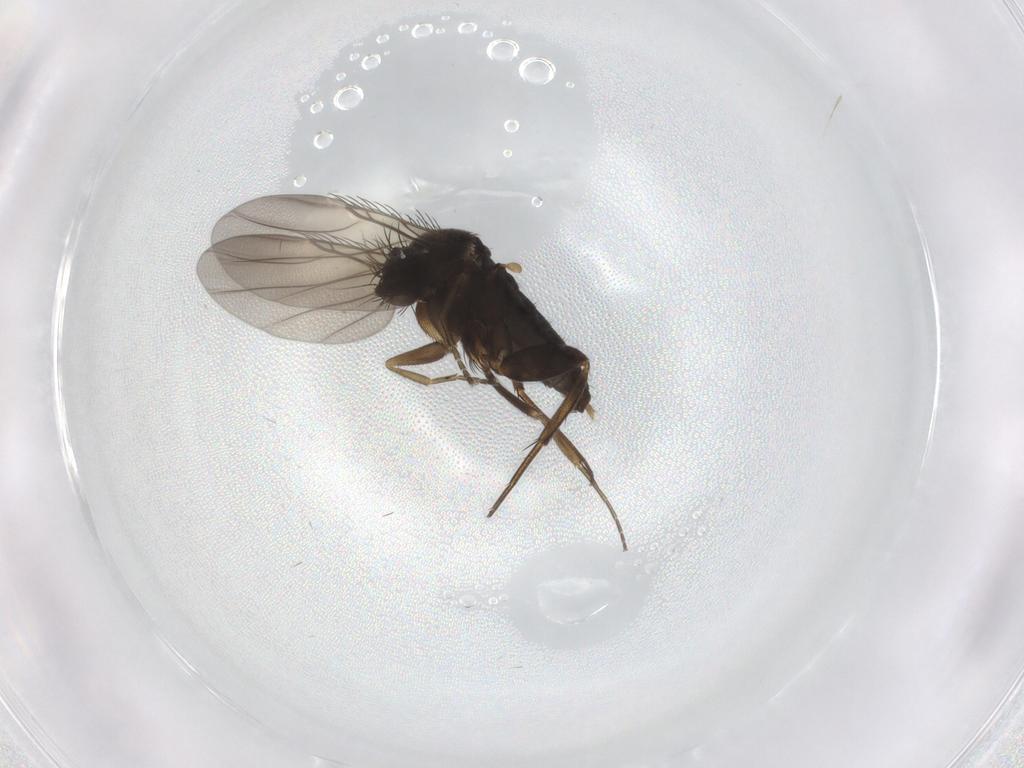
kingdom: Animalia
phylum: Arthropoda
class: Insecta
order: Diptera
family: Phoridae
